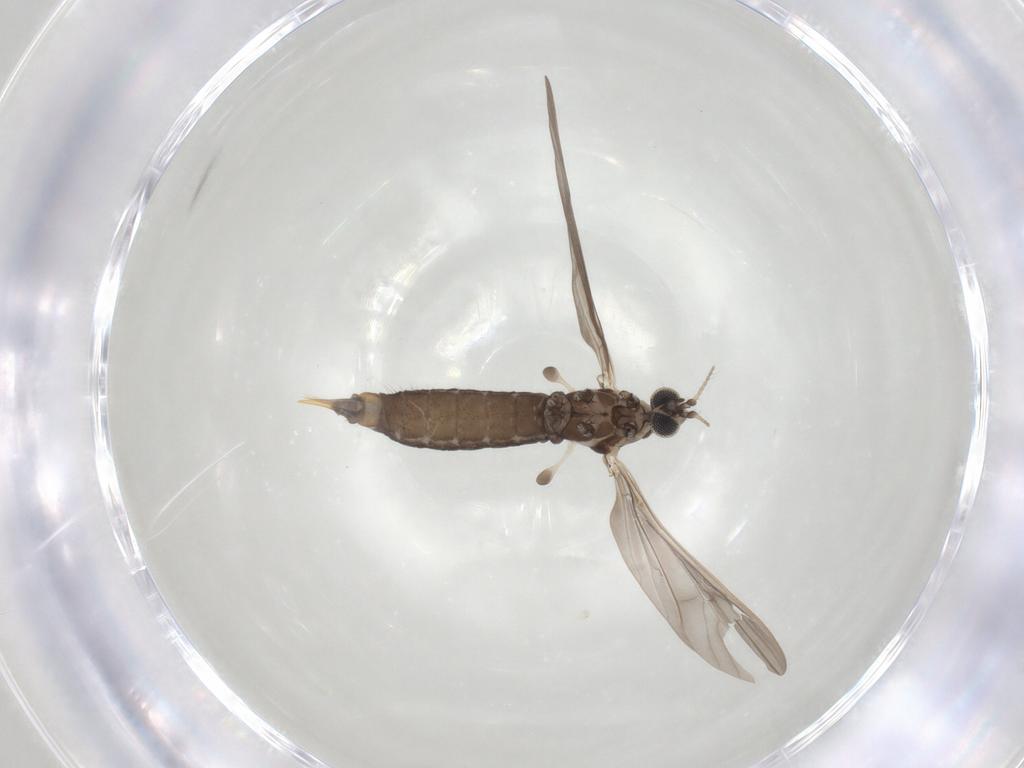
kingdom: Animalia
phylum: Arthropoda
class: Insecta
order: Diptera
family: Limoniidae
